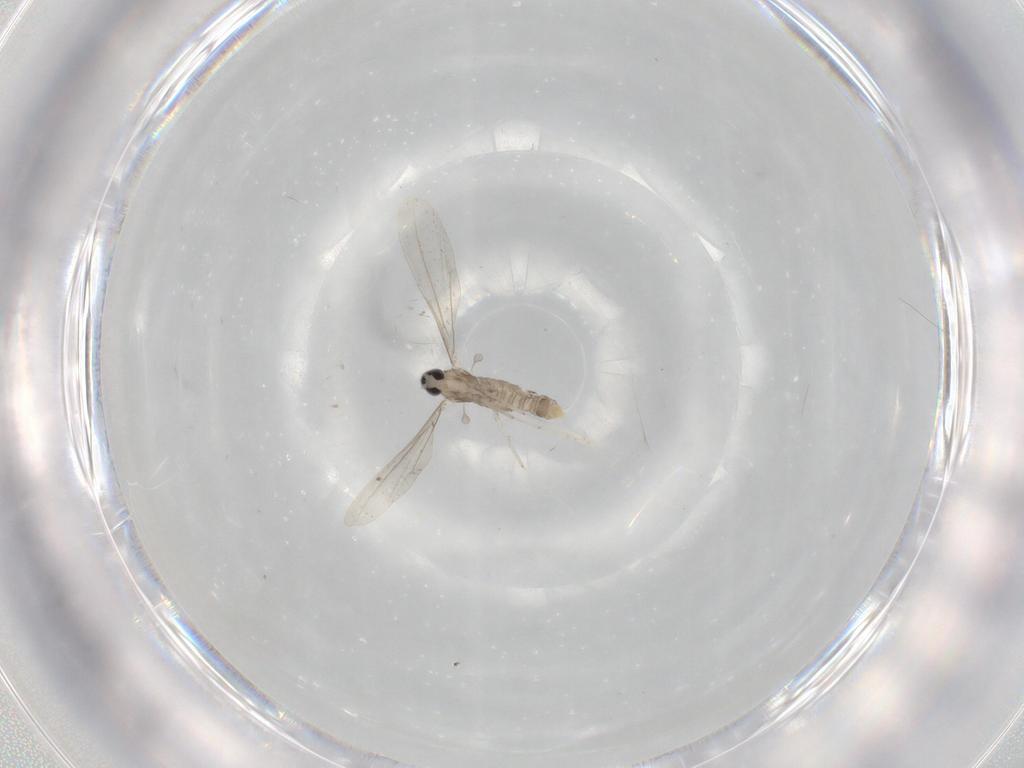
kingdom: Animalia
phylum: Arthropoda
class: Insecta
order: Diptera
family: Cecidomyiidae
